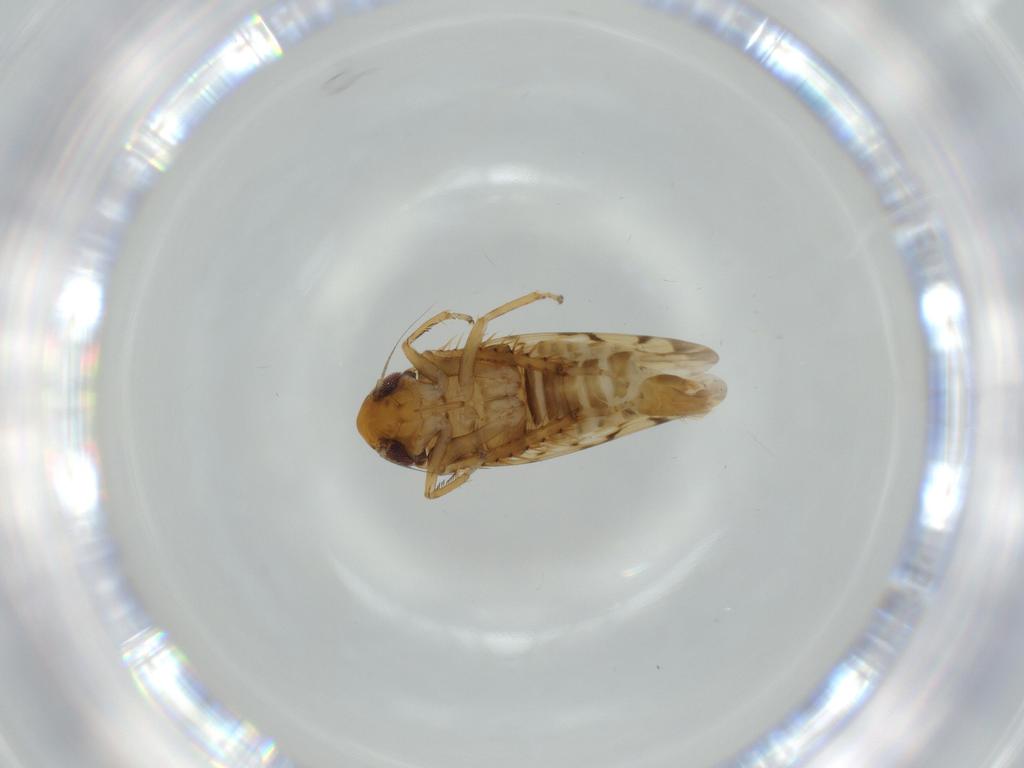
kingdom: Animalia
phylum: Arthropoda
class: Insecta
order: Hemiptera
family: Cicadellidae
